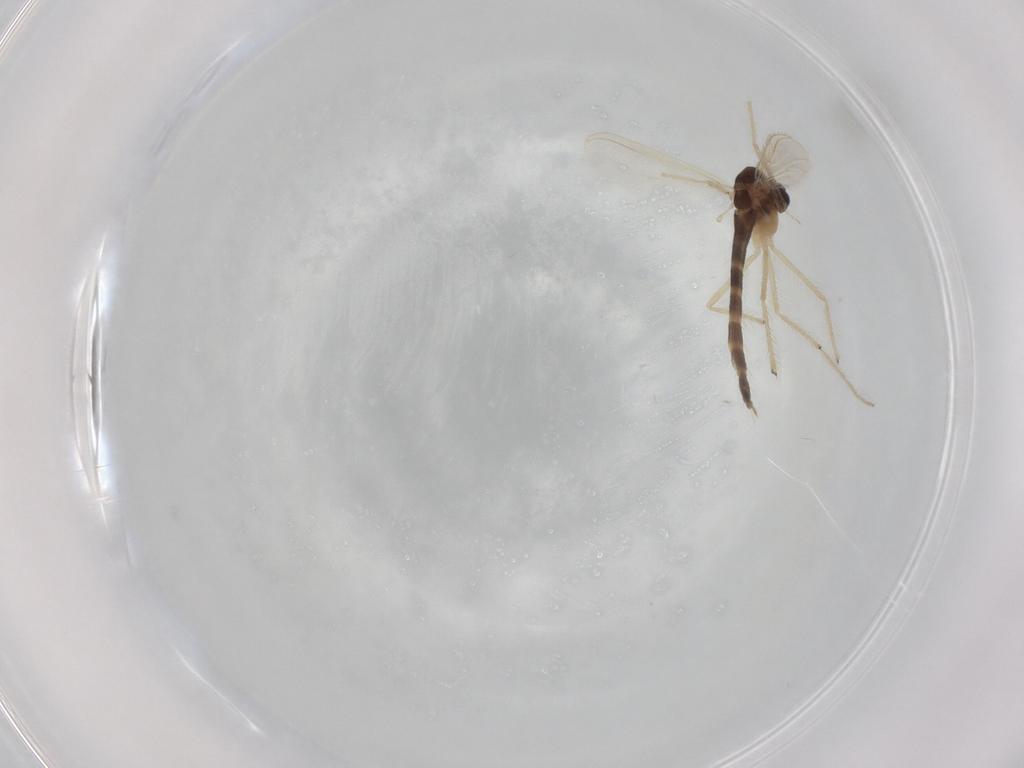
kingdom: Animalia
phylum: Arthropoda
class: Insecta
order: Diptera
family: Chironomidae
